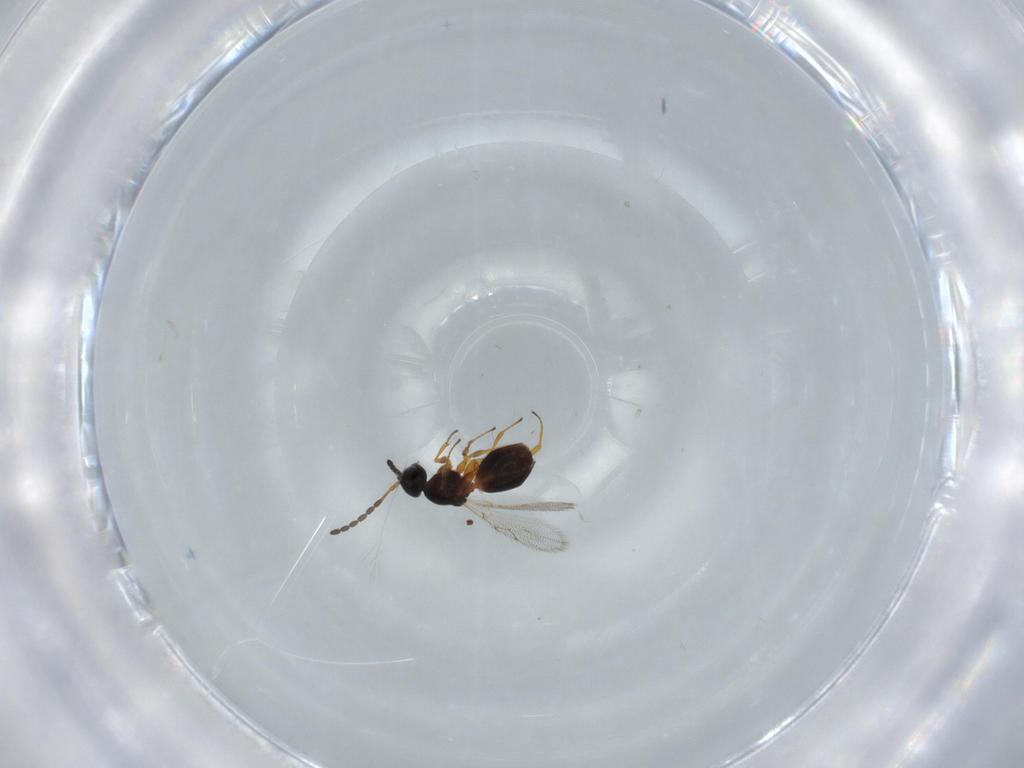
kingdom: Animalia
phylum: Arthropoda
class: Insecta
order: Hymenoptera
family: Figitidae
